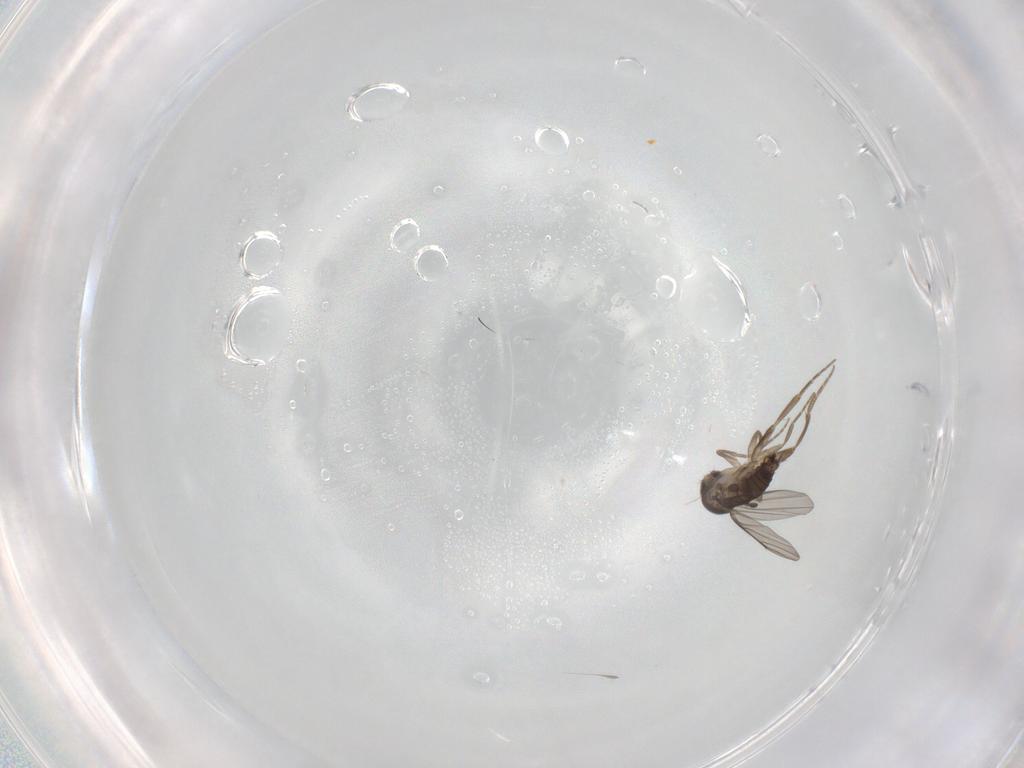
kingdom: Animalia
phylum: Arthropoda
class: Insecta
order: Diptera
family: Phoridae
